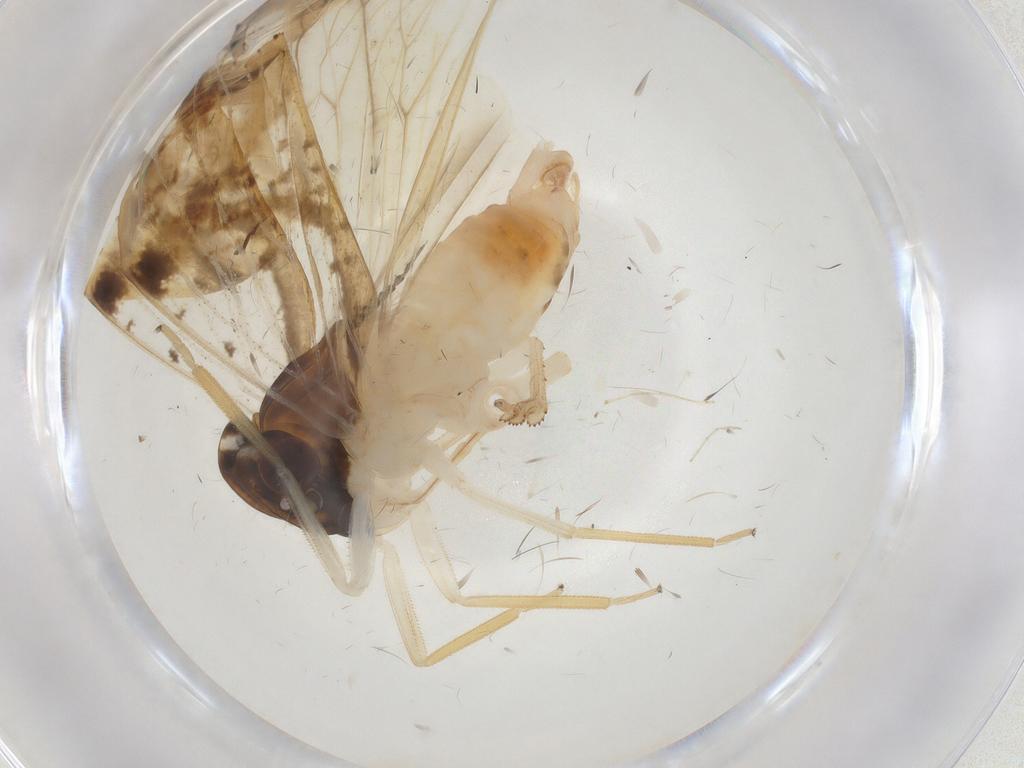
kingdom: Animalia
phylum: Arthropoda
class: Insecta
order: Hemiptera
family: Cixiidae
